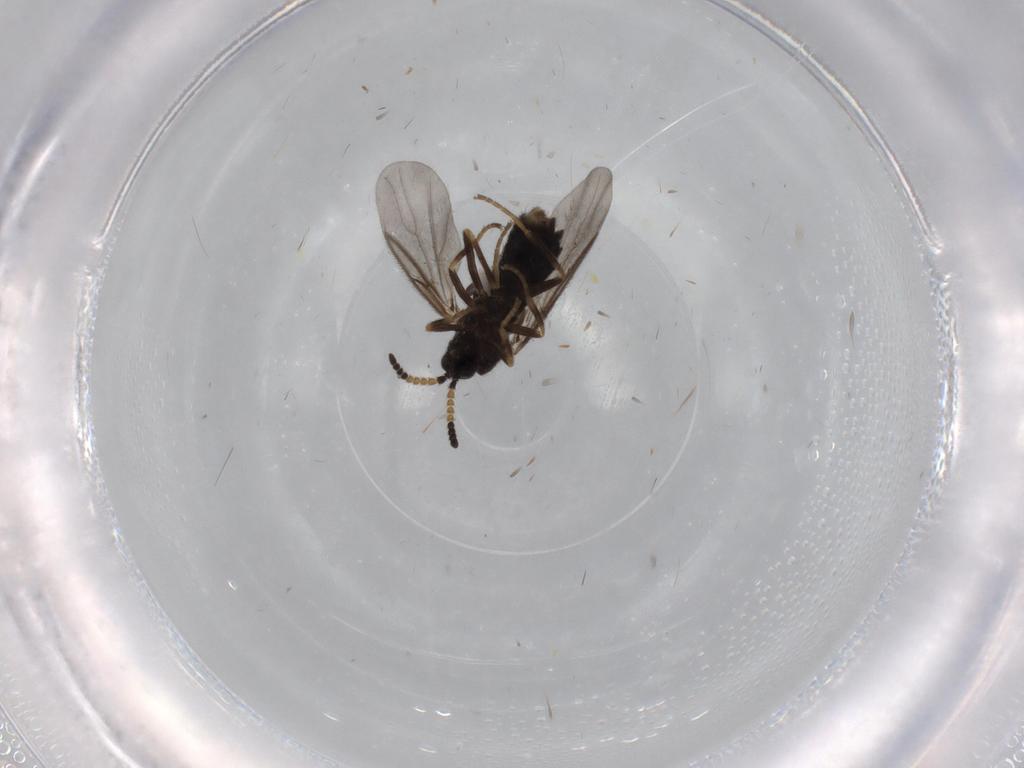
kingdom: Animalia
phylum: Arthropoda
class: Insecta
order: Diptera
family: Scatopsidae
